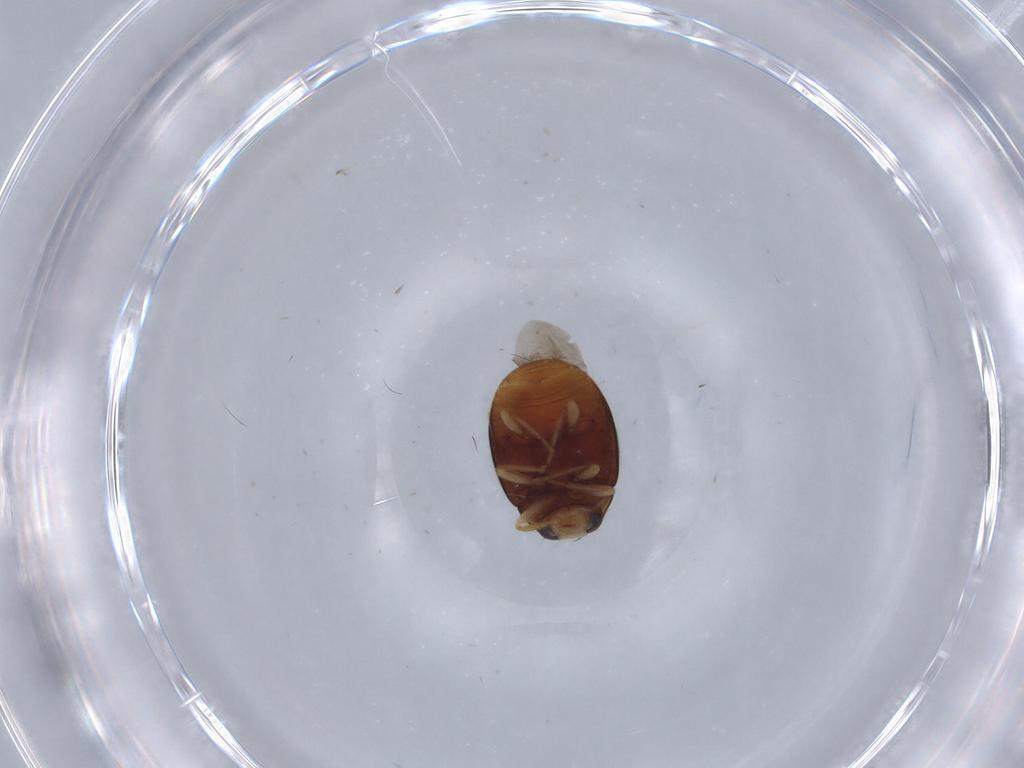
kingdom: Animalia
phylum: Arthropoda
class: Insecta
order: Coleoptera
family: Coccinellidae
